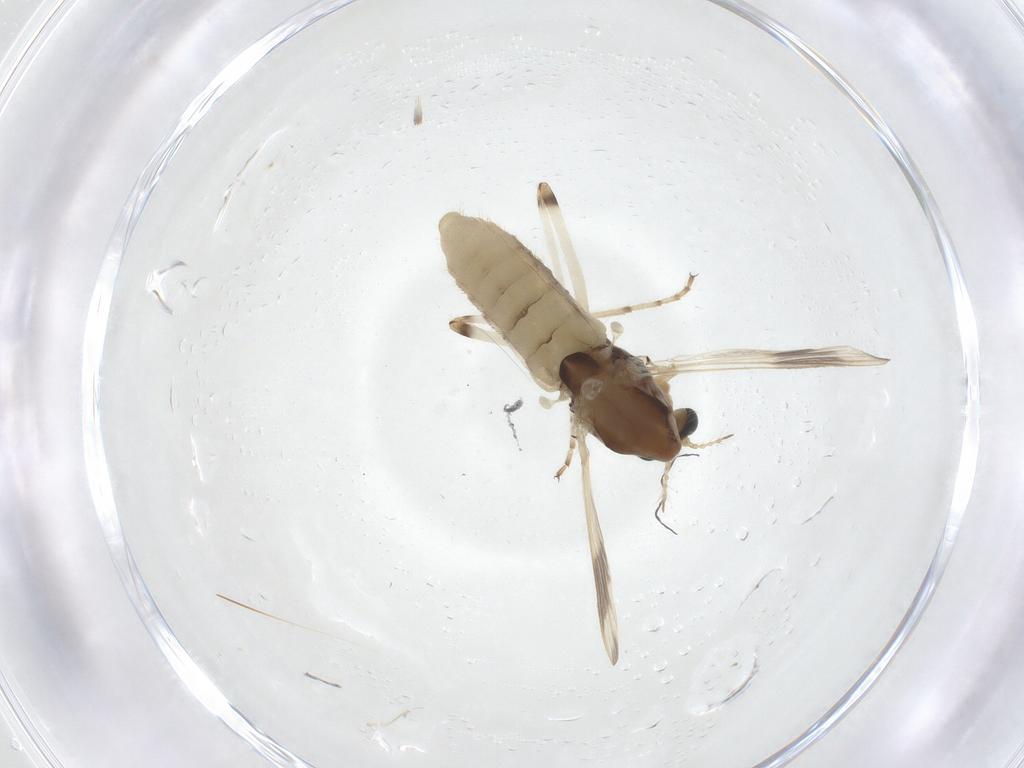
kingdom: Animalia
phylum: Arthropoda
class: Insecta
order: Diptera
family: Chironomidae
